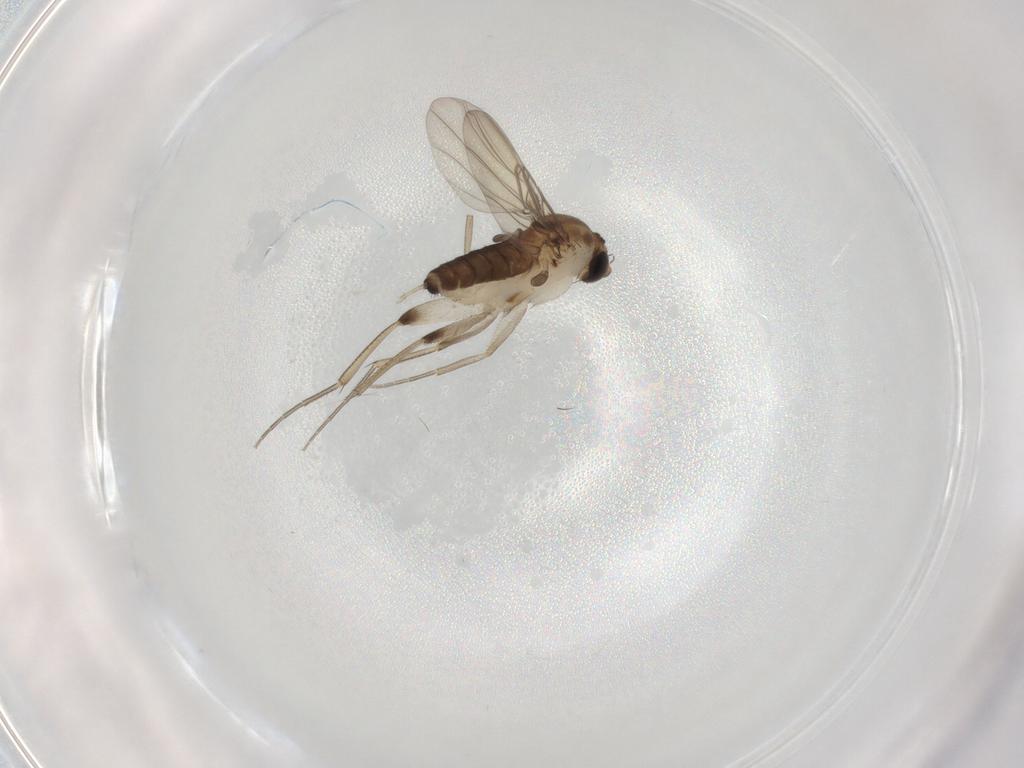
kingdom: Animalia
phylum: Arthropoda
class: Insecta
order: Diptera
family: Phoridae
